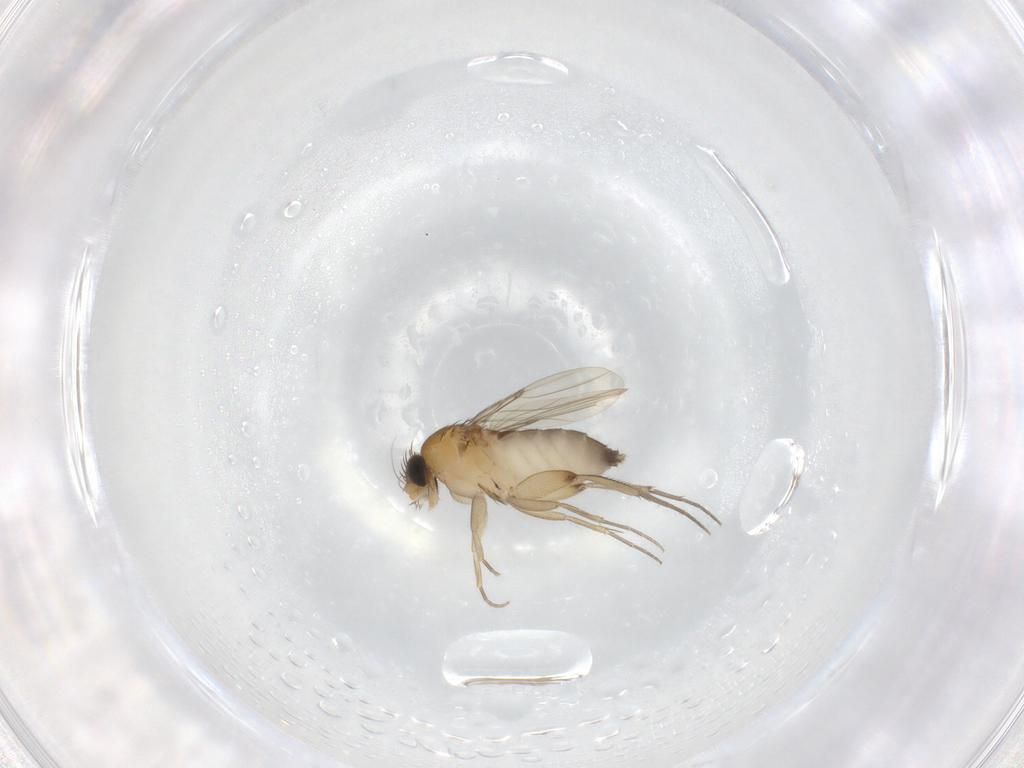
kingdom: Animalia
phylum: Arthropoda
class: Insecta
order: Diptera
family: Phoridae
